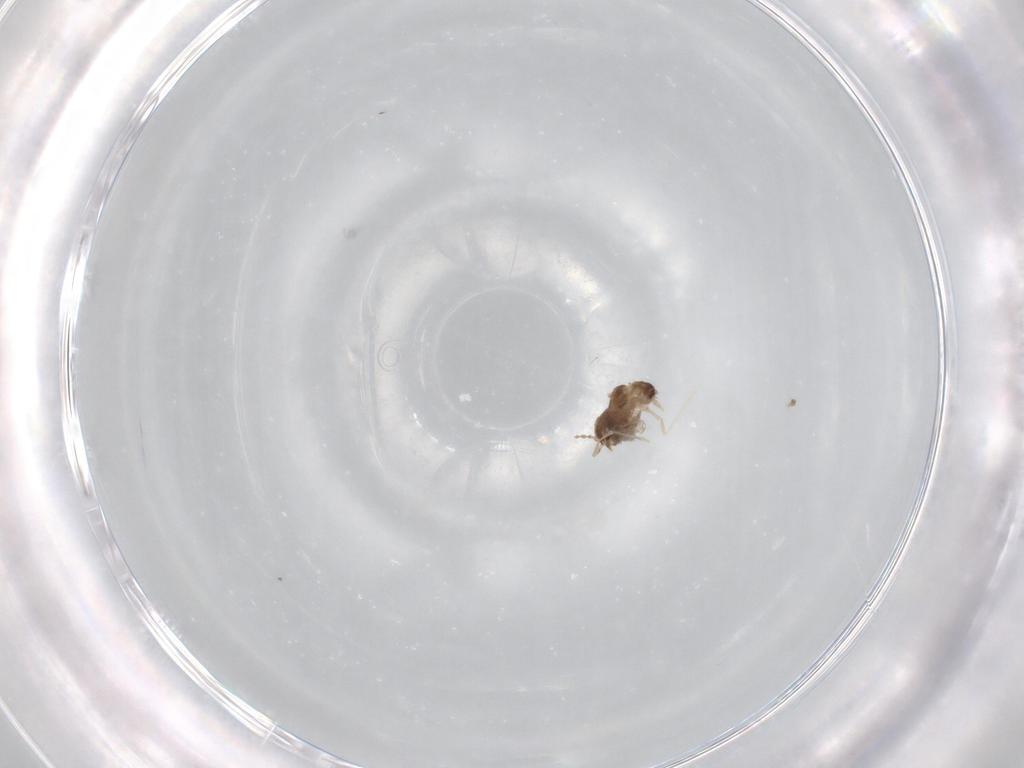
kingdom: Animalia
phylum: Arthropoda
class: Insecta
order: Diptera
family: Cecidomyiidae
